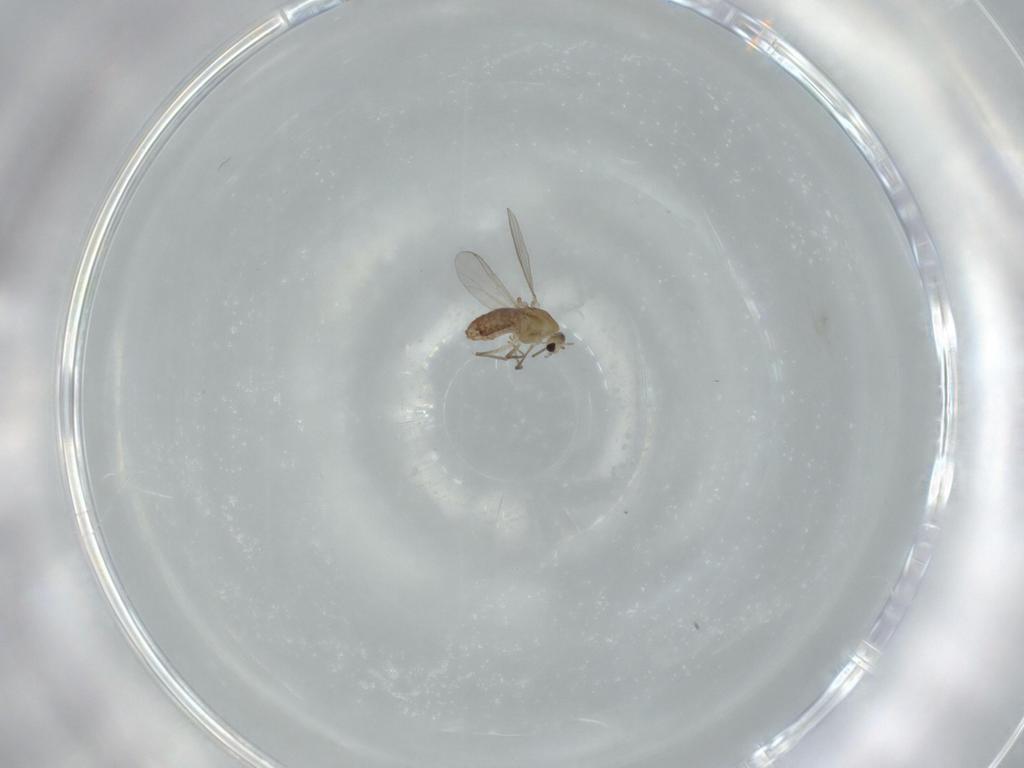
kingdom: Animalia
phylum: Arthropoda
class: Insecta
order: Diptera
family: Chironomidae
